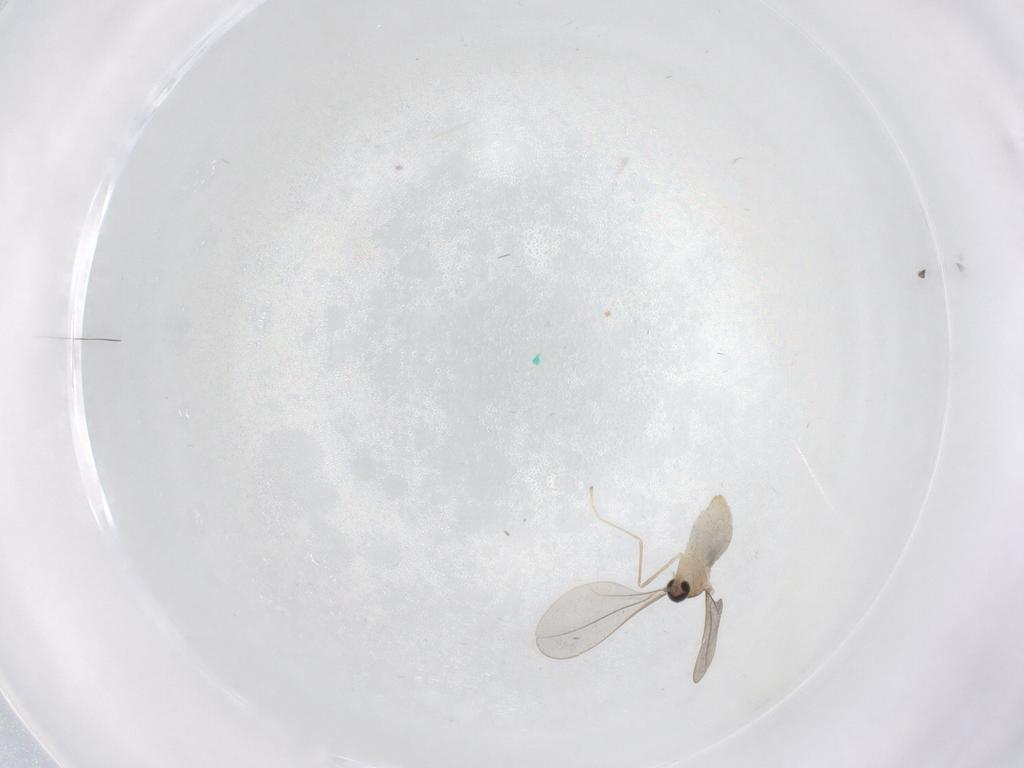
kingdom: Animalia
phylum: Arthropoda
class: Insecta
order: Diptera
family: Cecidomyiidae
